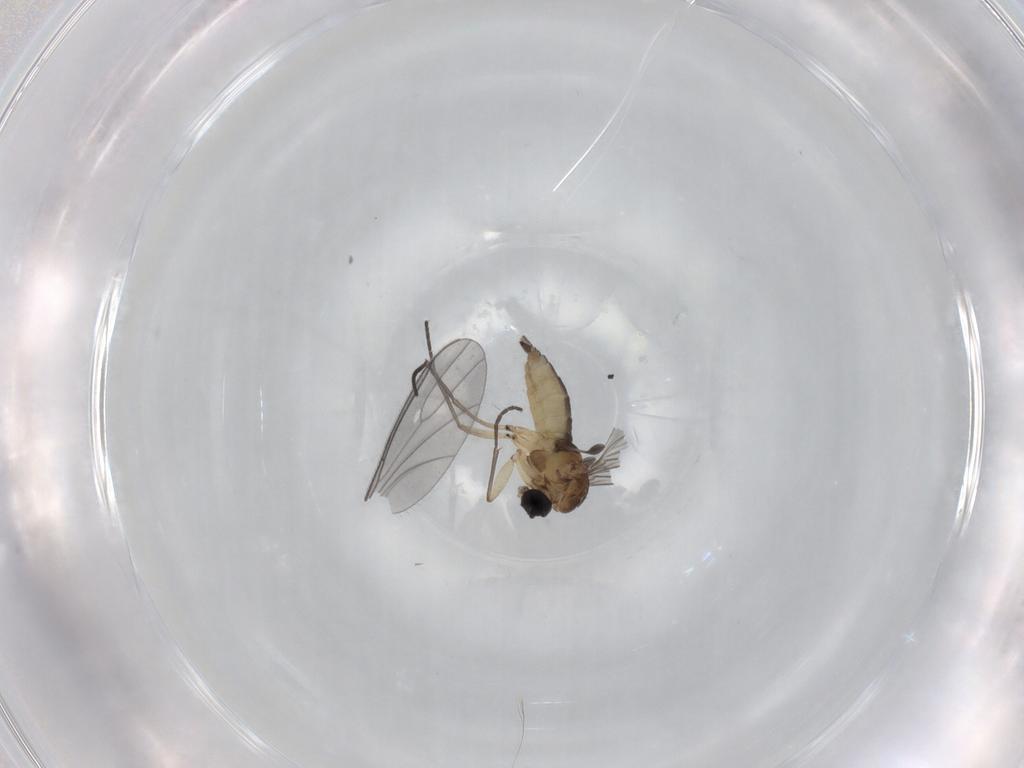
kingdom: Animalia
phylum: Arthropoda
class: Insecta
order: Diptera
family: Sciaridae
